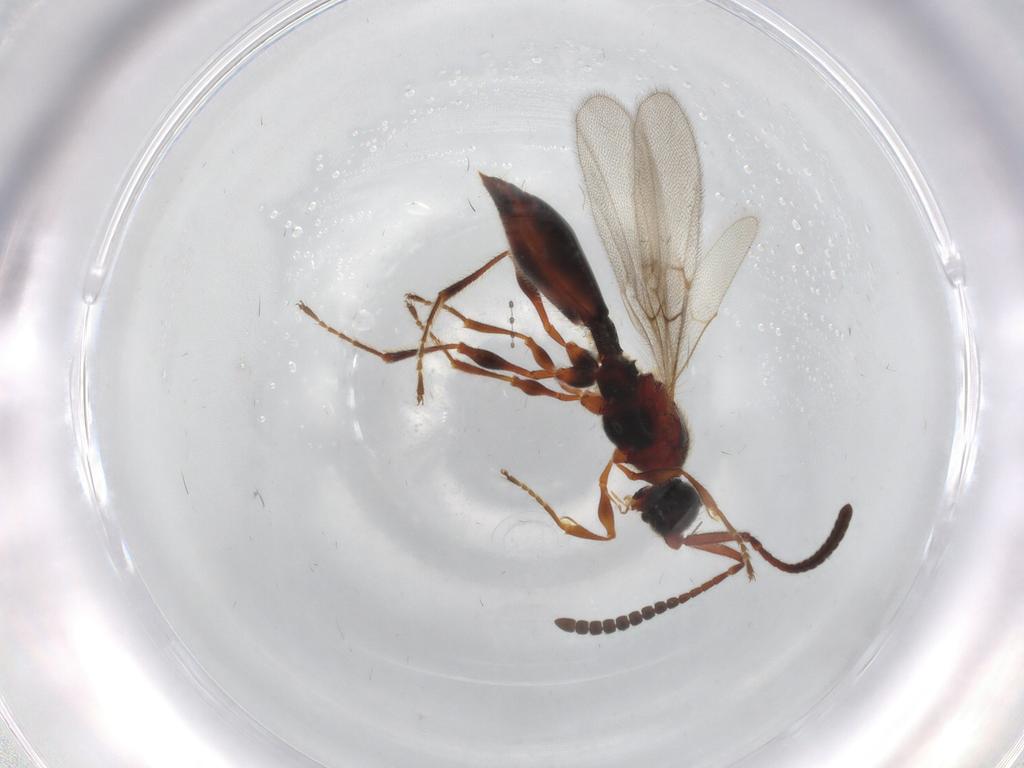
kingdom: Animalia
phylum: Arthropoda
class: Insecta
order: Hymenoptera
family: Diapriidae
